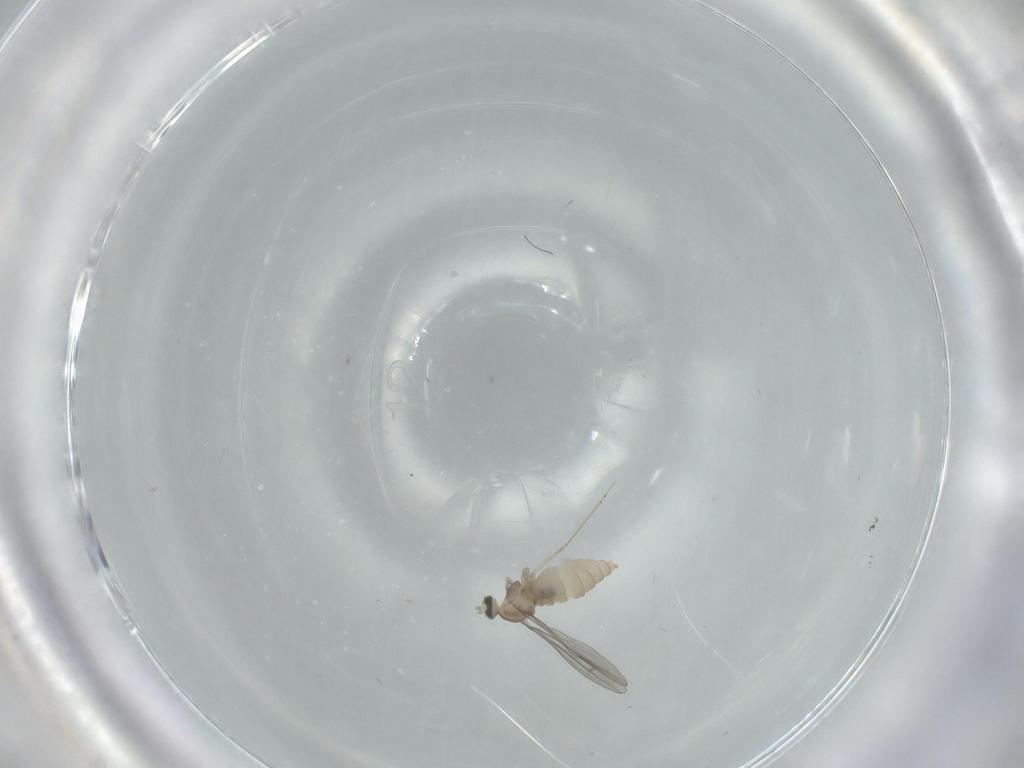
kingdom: Animalia
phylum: Arthropoda
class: Insecta
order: Diptera
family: Cecidomyiidae
